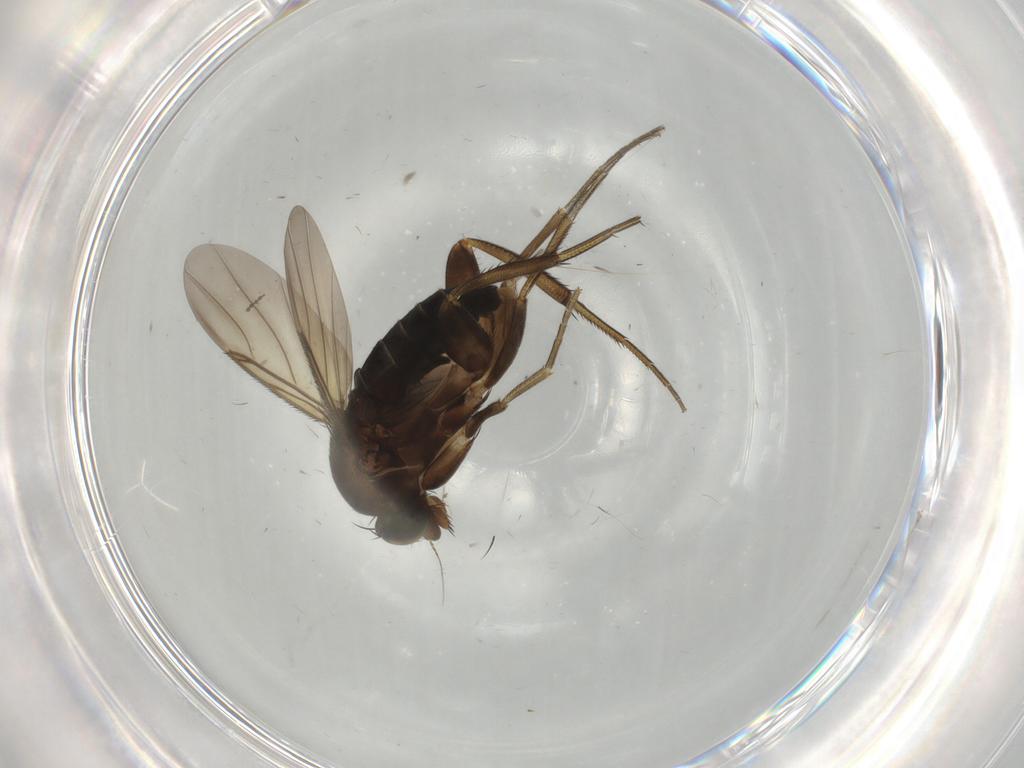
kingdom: Animalia
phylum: Arthropoda
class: Insecta
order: Diptera
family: Phoridae
